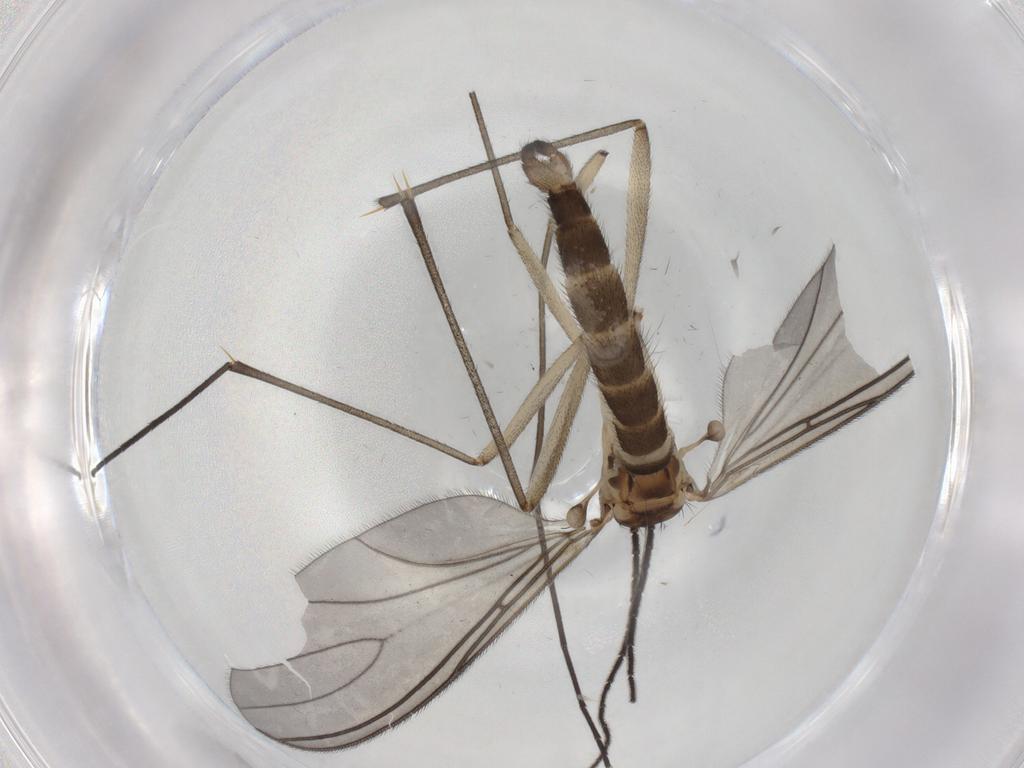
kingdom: Animalia
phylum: Arthropoda
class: Insecta
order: Diptera
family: Sciaridae
